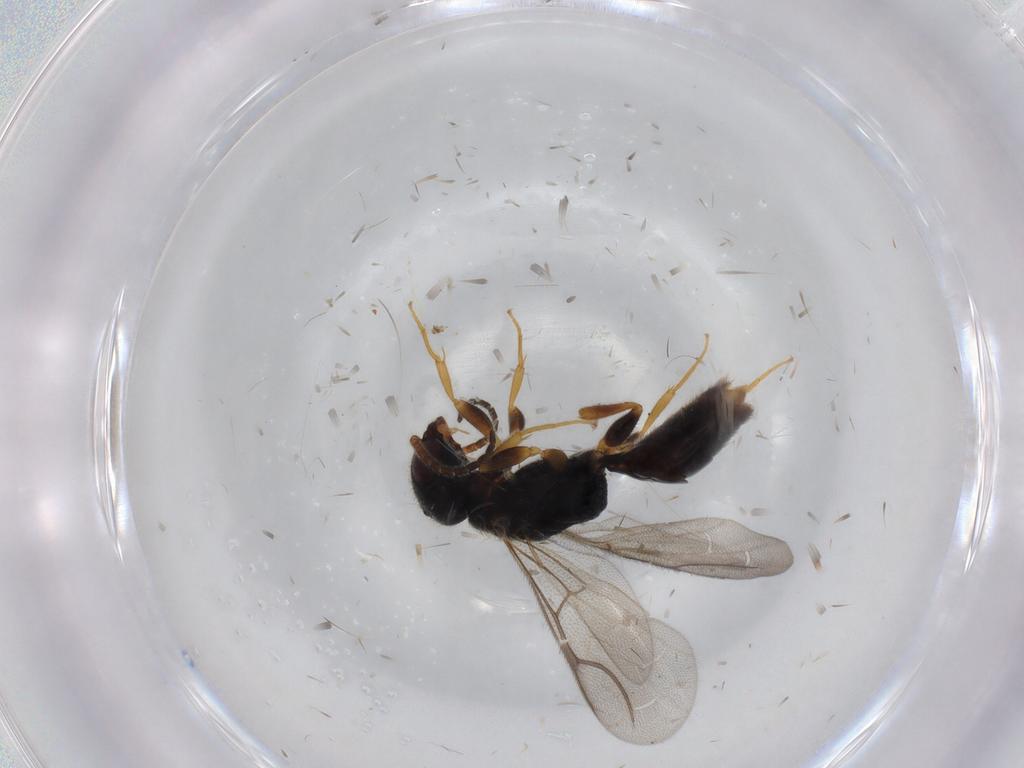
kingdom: Animalia
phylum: Arthropoda
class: Insecta
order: Hymenoptera
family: Bethylidae
